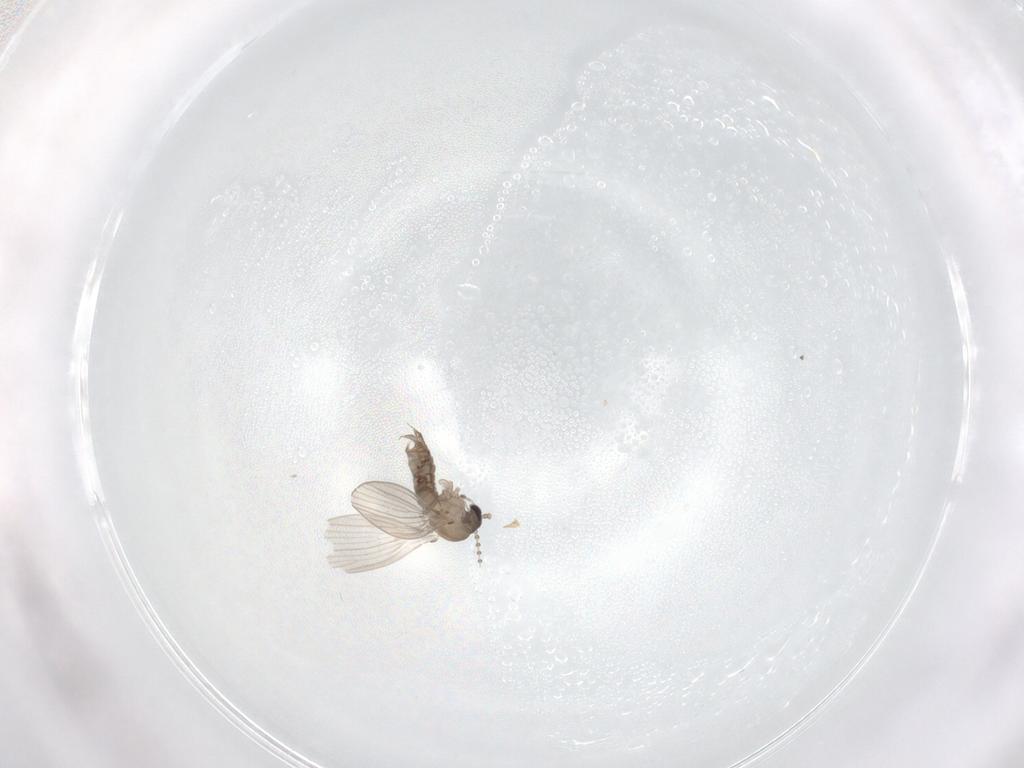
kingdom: Animalia
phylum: Arthropoda
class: Insecta
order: Diptera
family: Psychodidae
